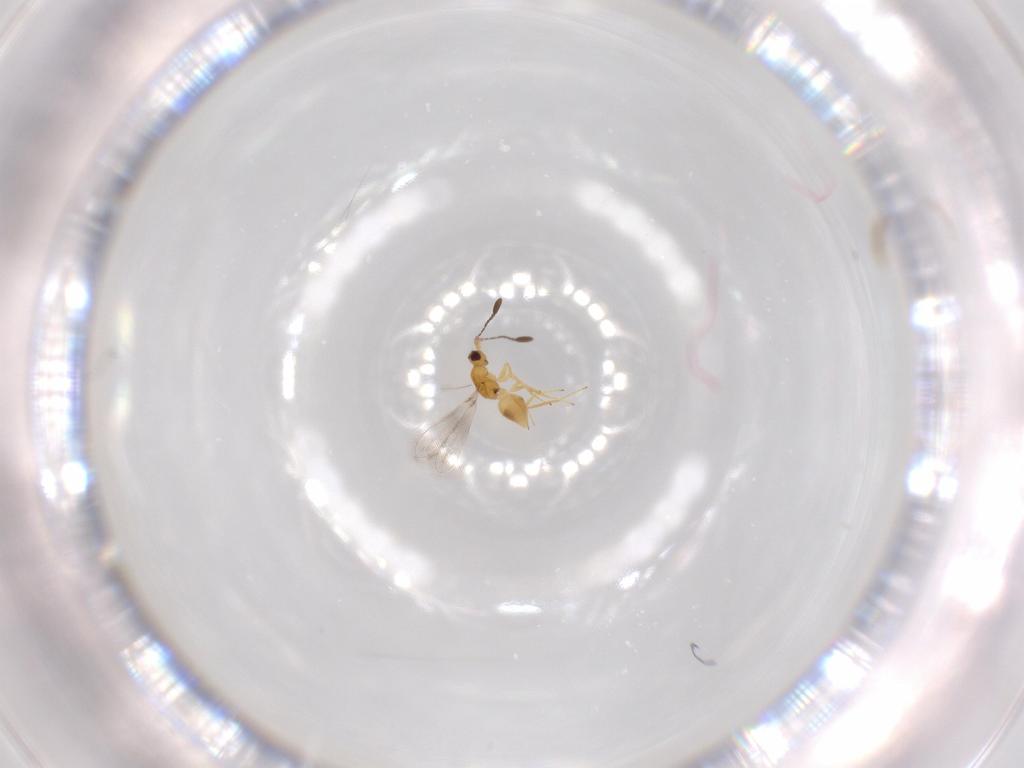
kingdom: Animalia
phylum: Arthropoda
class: Insecta
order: Hymenoptera
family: Mymaridae
